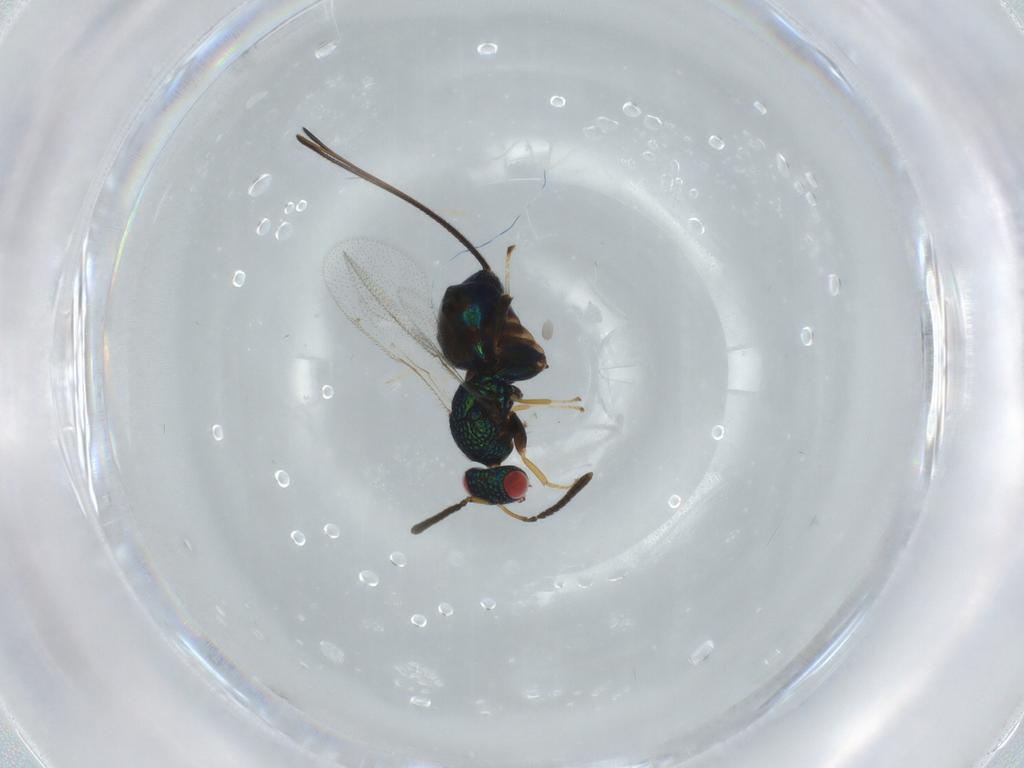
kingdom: Animalia
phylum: Arthropoda
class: Insecta
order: Hymenoptera
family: Torymidae
